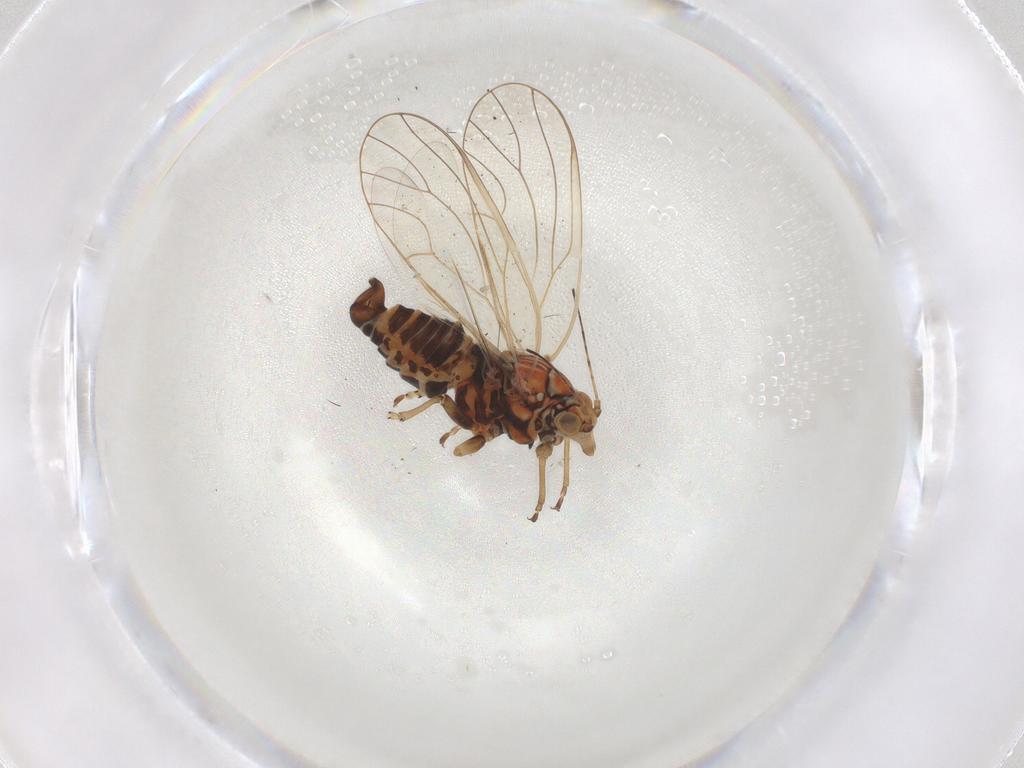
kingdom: Animalia
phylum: Arthropoda
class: Insecta
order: Hemiptera
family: Psyllidae
